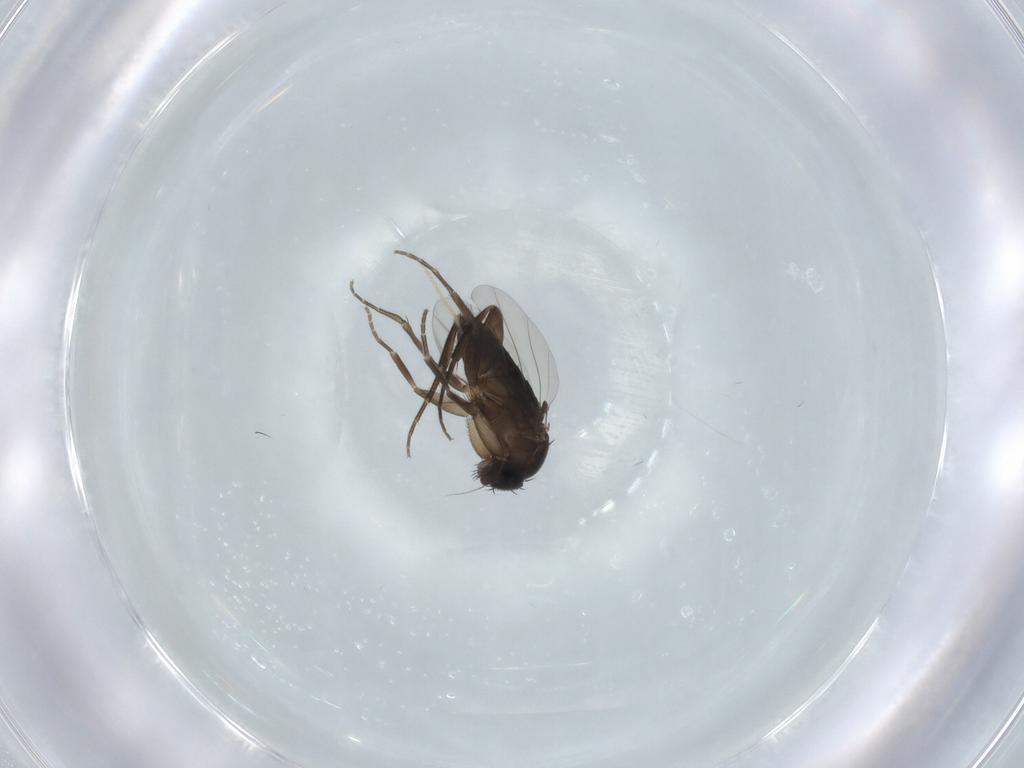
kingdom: Animalia
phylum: Arthropoda
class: Insecta
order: Diptera
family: Phoridae
